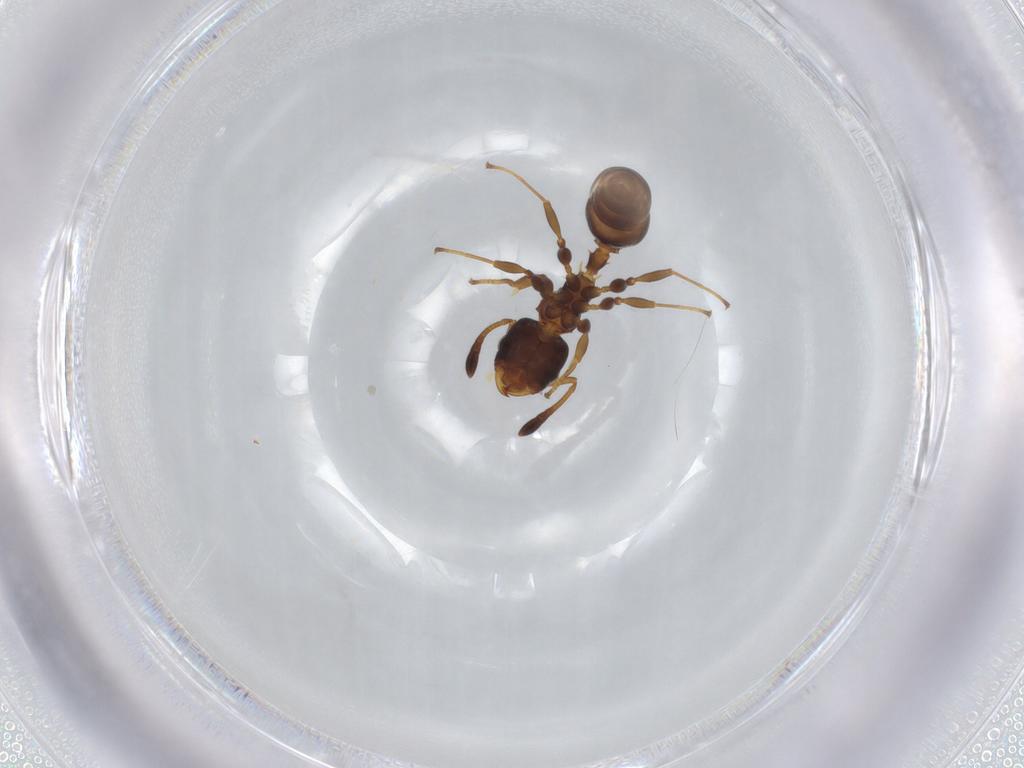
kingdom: Animalia
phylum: Arthropoda
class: Insecta
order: Hymenoptera
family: Formicidae
